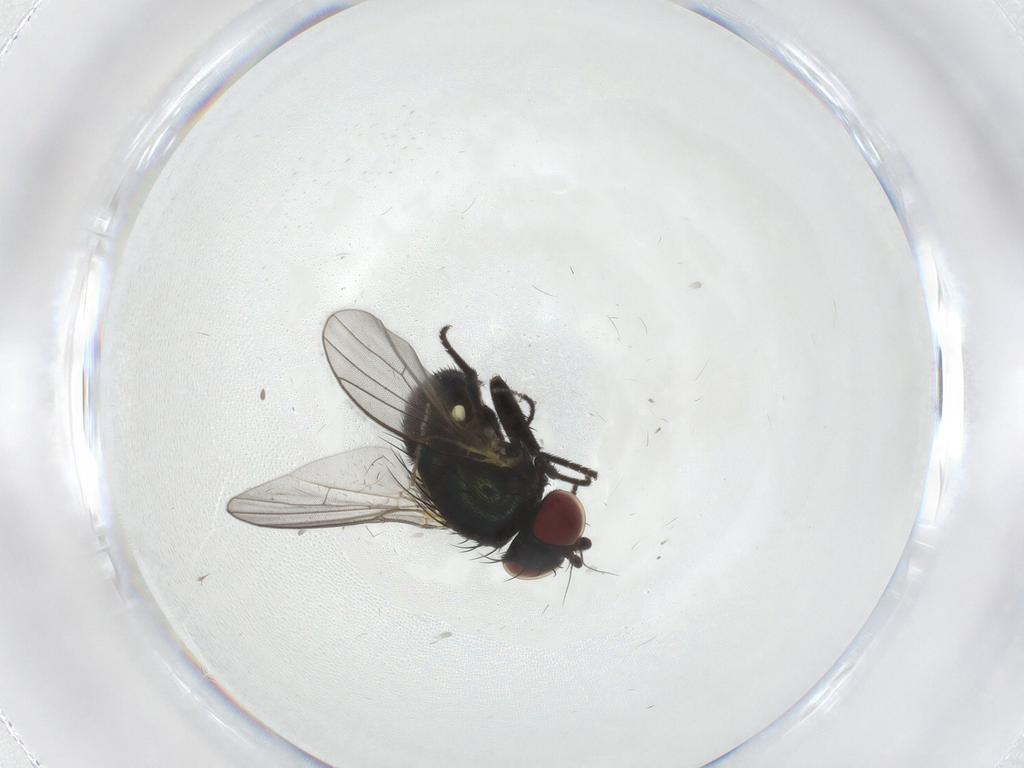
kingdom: Animalia
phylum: Arthropoda
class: Insecta
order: Diptera
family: Agromyzidae
